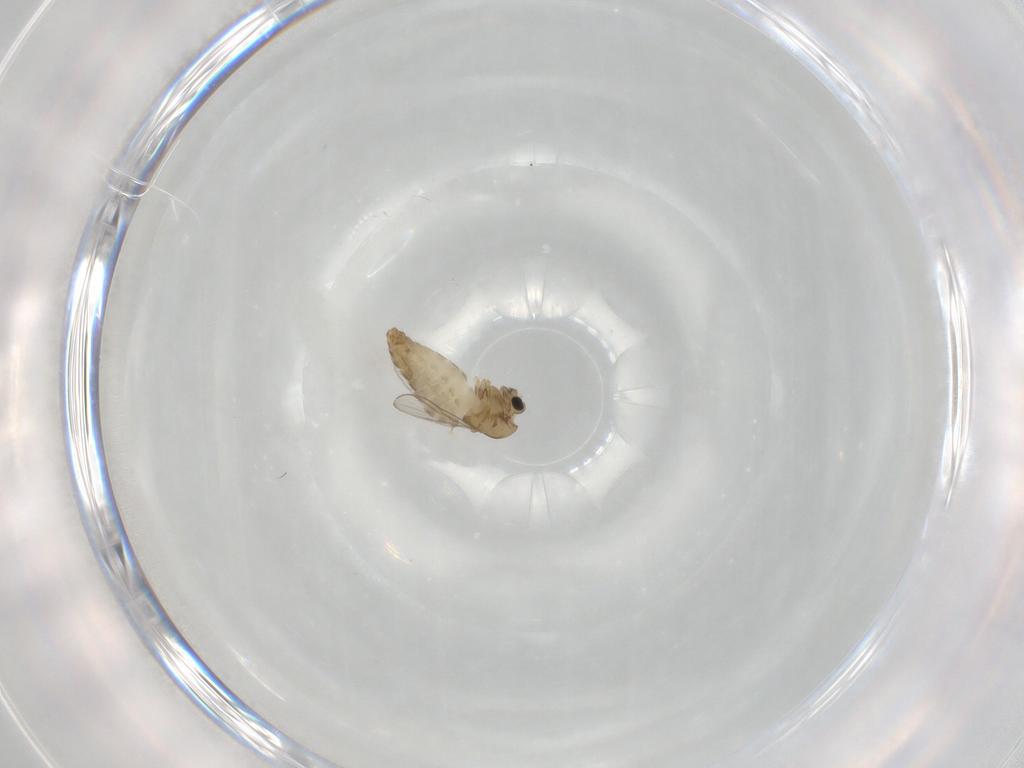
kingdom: Animalia
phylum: Arthropoda
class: Insecta
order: Diptera
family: Chironomidae
